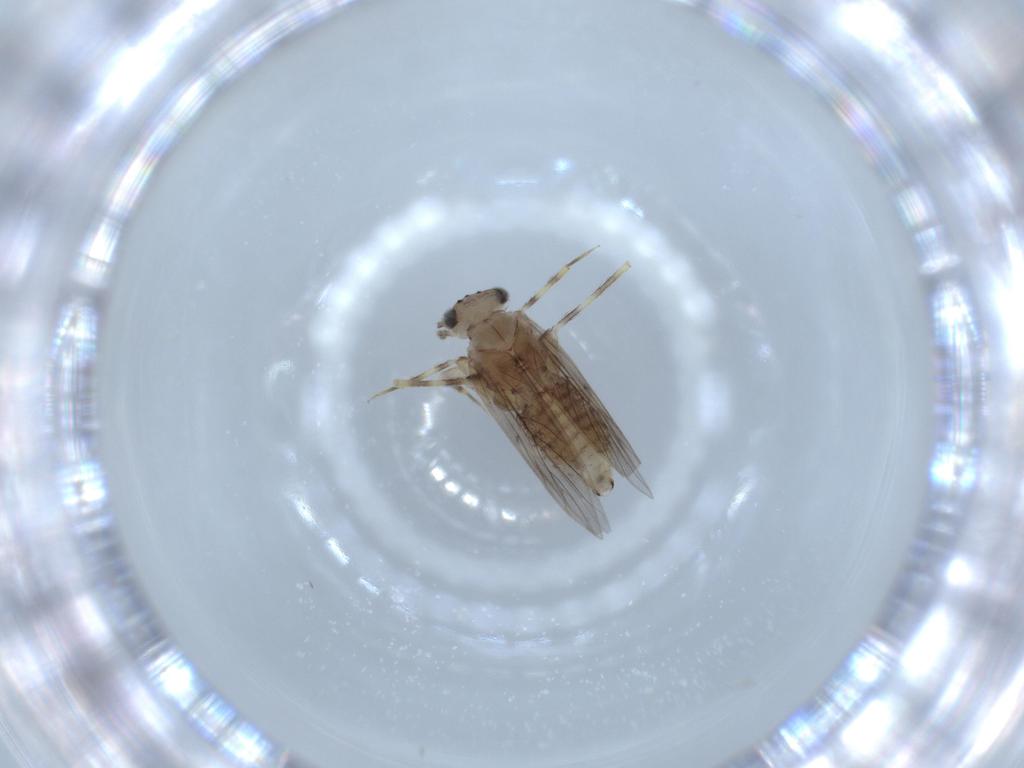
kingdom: Animalia
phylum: Arthropoda
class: Insecta
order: Psocodea
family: Lepidopsocidae
